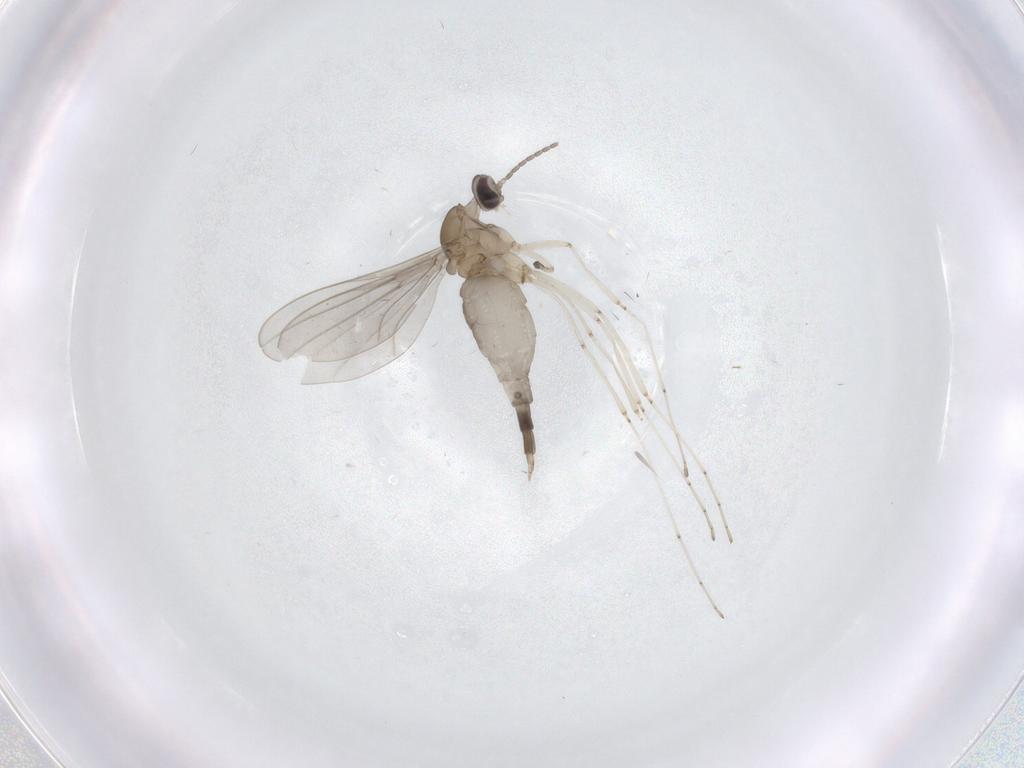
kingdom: Animalia
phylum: Arthropoda
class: Insecta
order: Diptera
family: Cecidomyiidae
